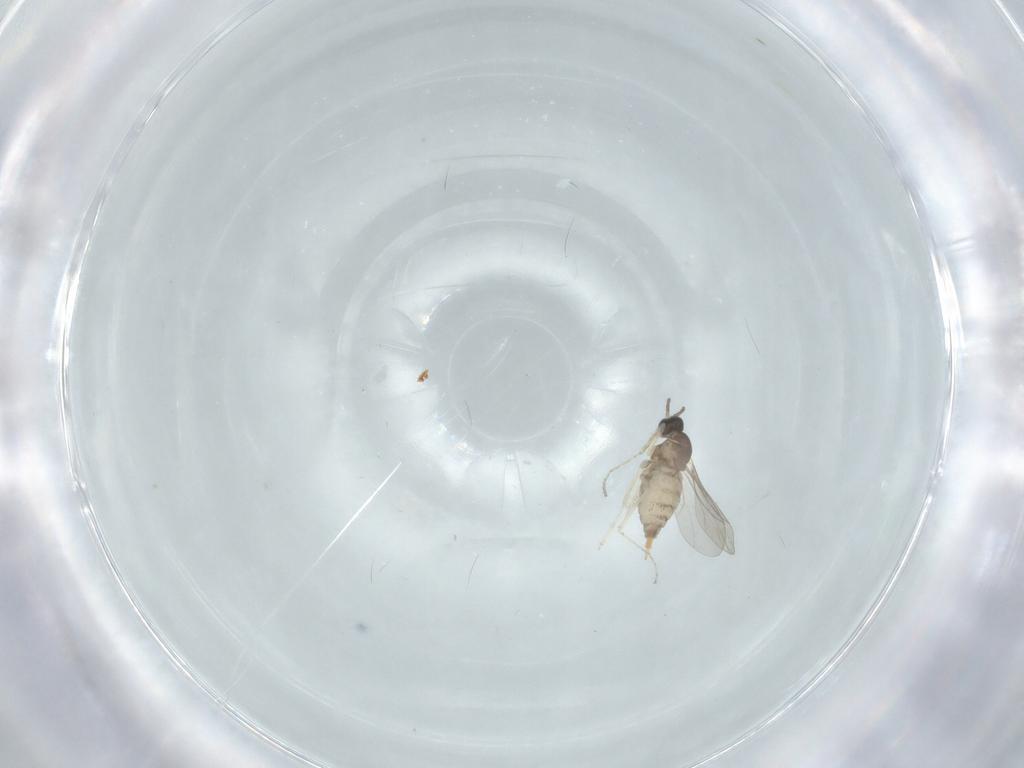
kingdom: Animalia
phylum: Arthropoda
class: Insecta
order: Diptera
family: Cecidomyiidae
